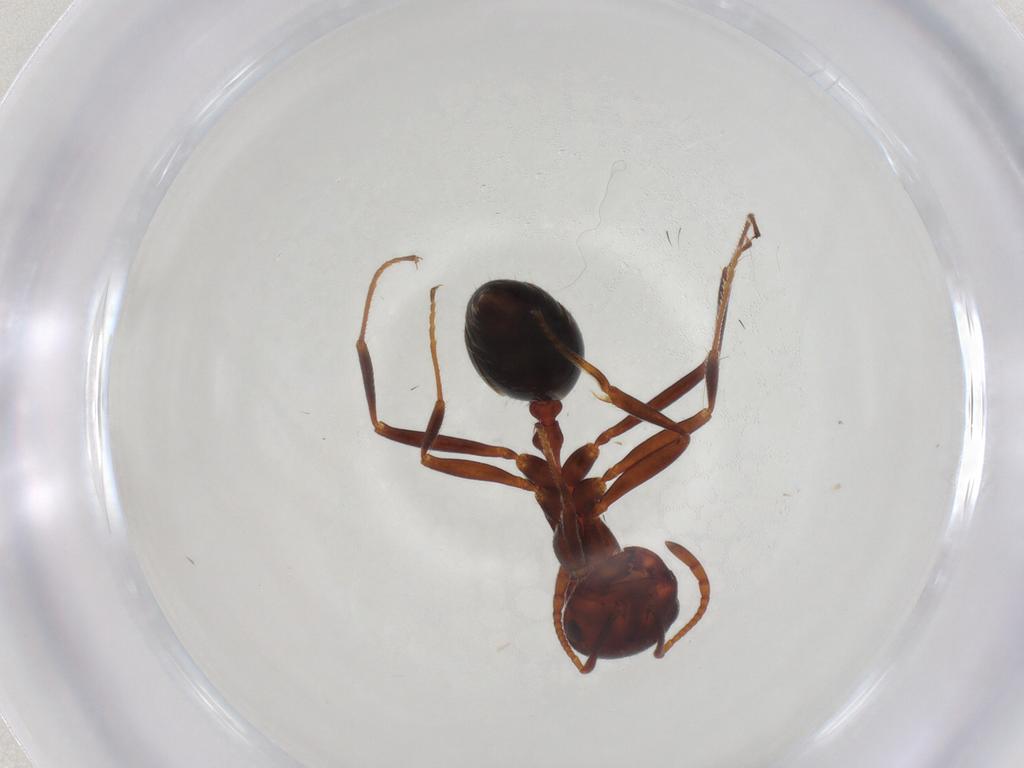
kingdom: Animalia
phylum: Arthropoda
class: Insecta
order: Hymenoptera
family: Formicidae
